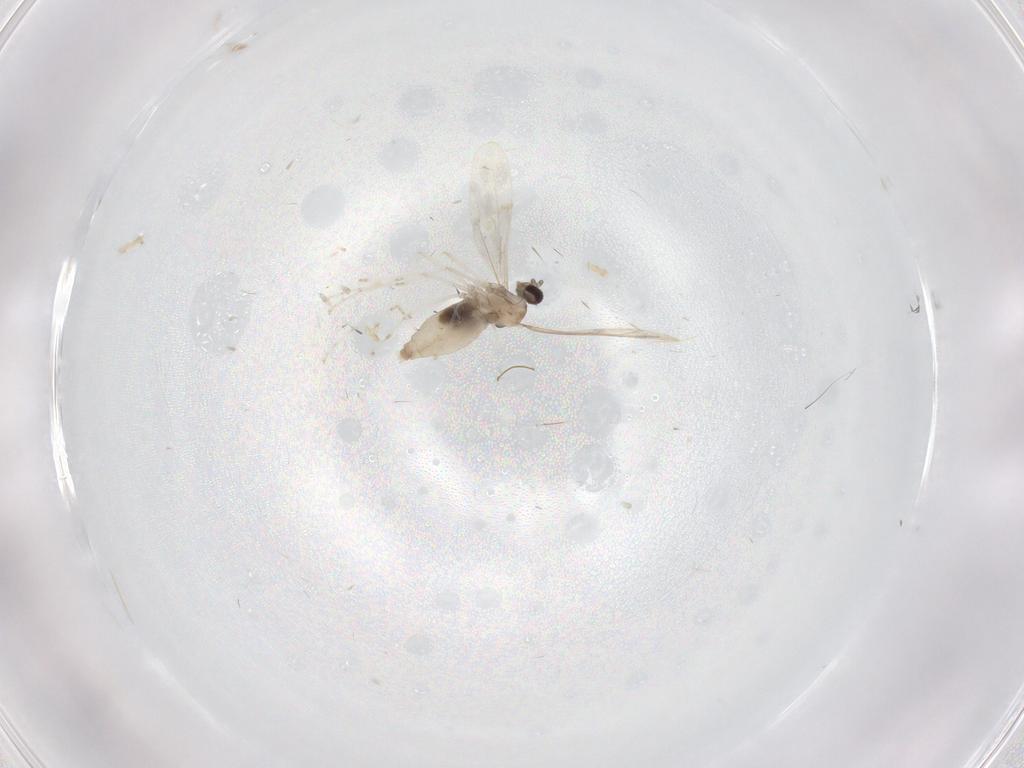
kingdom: Animalia
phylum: Arthropoda
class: Insecta
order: Diptera
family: Cecidomyiidae
